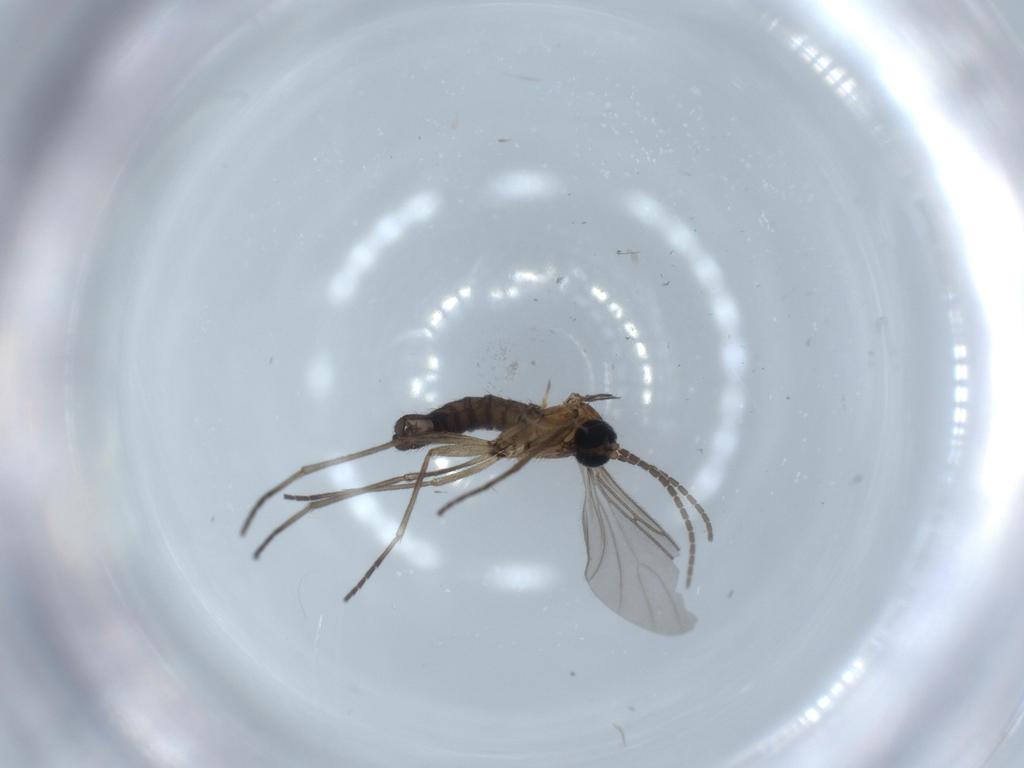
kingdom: Animalia
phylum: Arthropoda
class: Insecta
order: Diptera
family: Sciaridae
